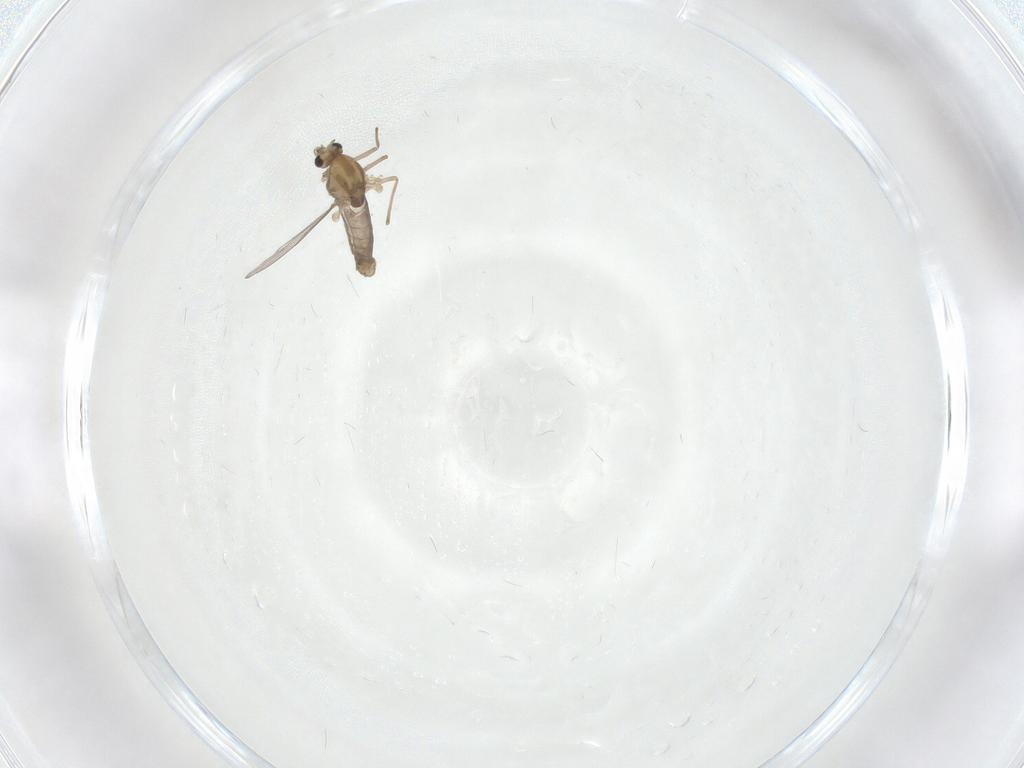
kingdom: Animalia
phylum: Arthropoda
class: Insecta
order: Diptera
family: Chironomidae
